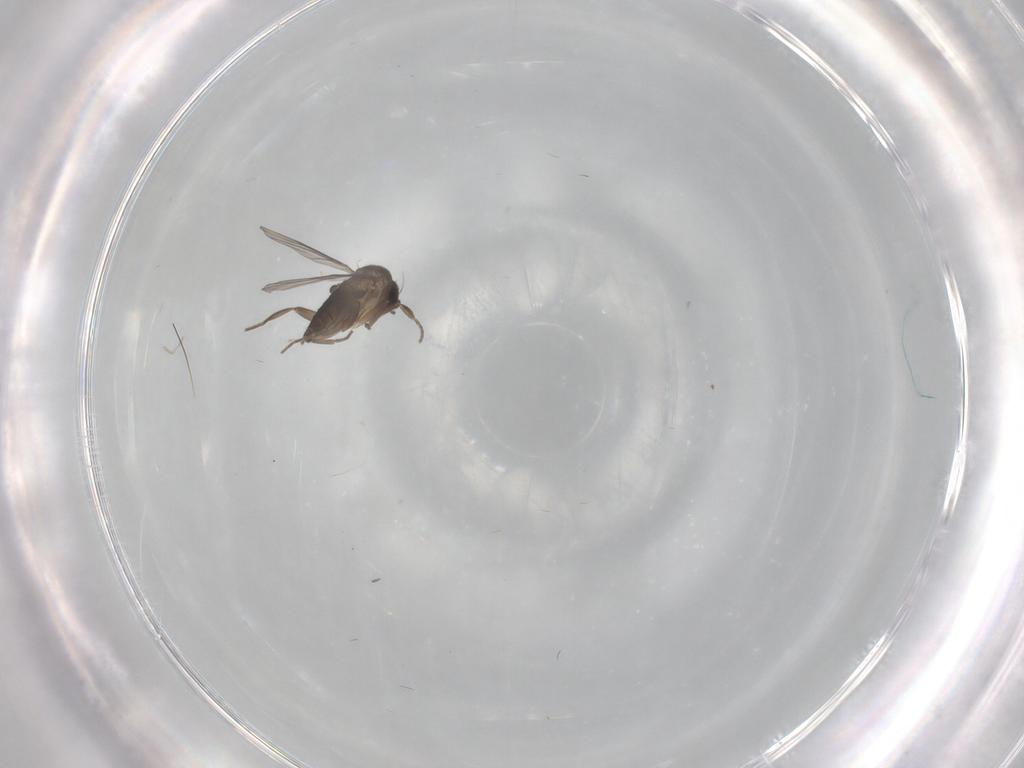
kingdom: Animalia
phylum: Arthropoda
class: Insecta
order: Diptera
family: Phoridae
